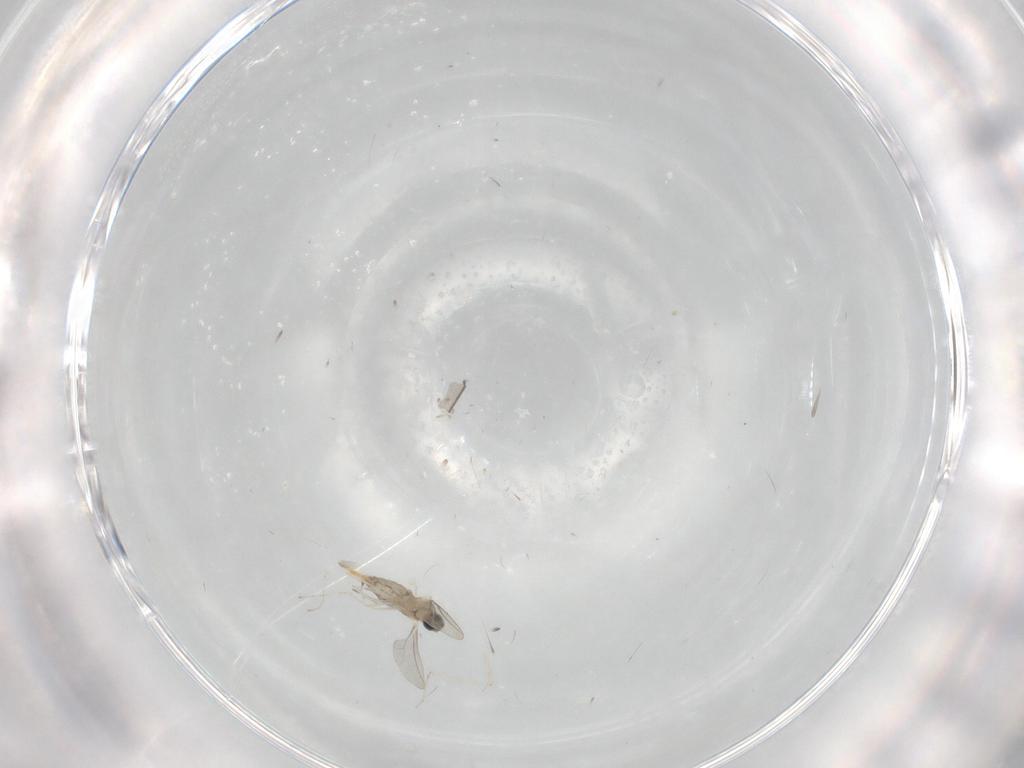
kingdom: Animalia
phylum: Arthropoda
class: Insecta
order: Diptera
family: Cecidomyiidae
